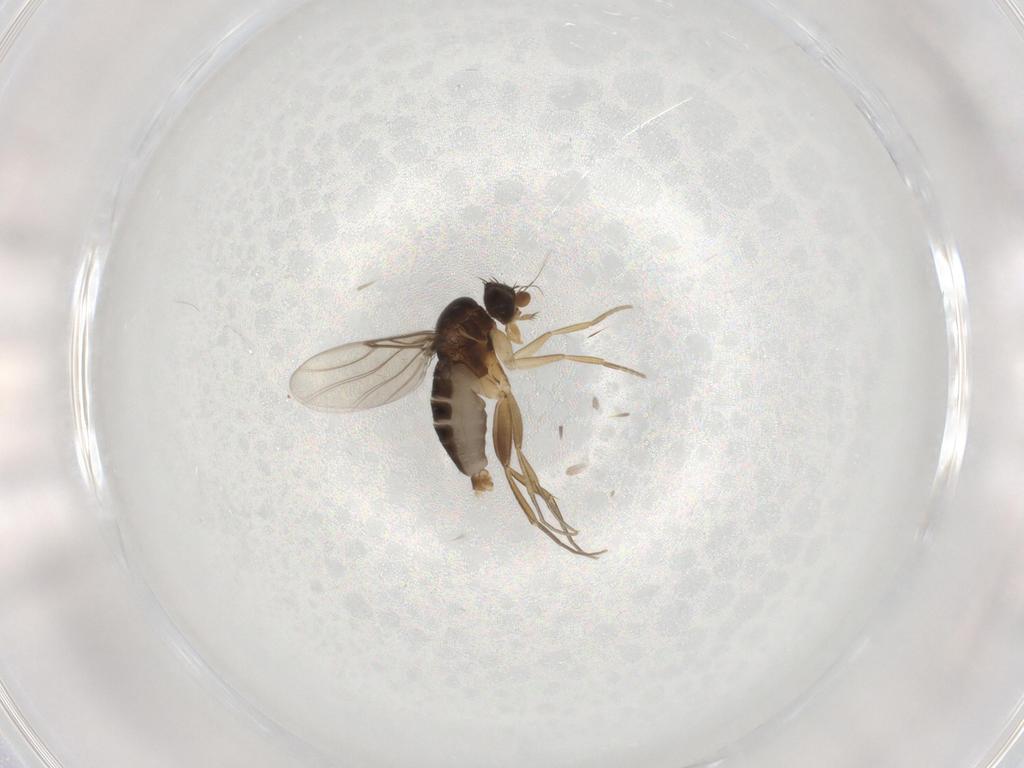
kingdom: Animalia
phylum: Arthropoda
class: Insecta
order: Diptera
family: Phoridae
